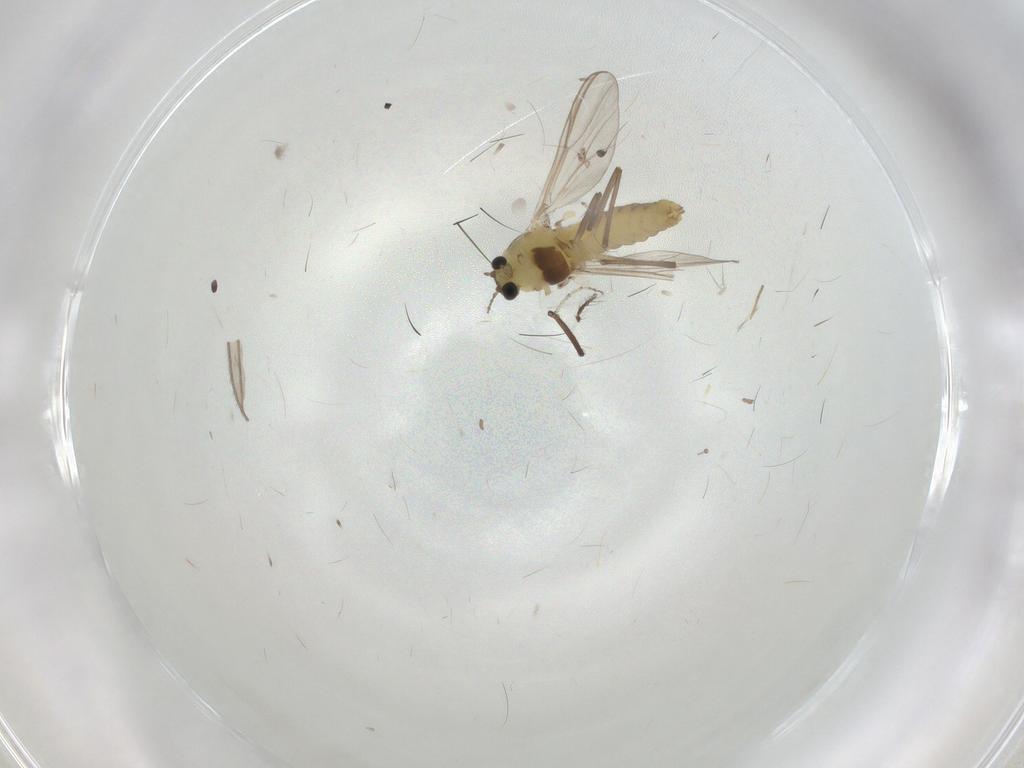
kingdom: Animalia
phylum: Arthropoda
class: Insecta
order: Diptera
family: Chironomidae
